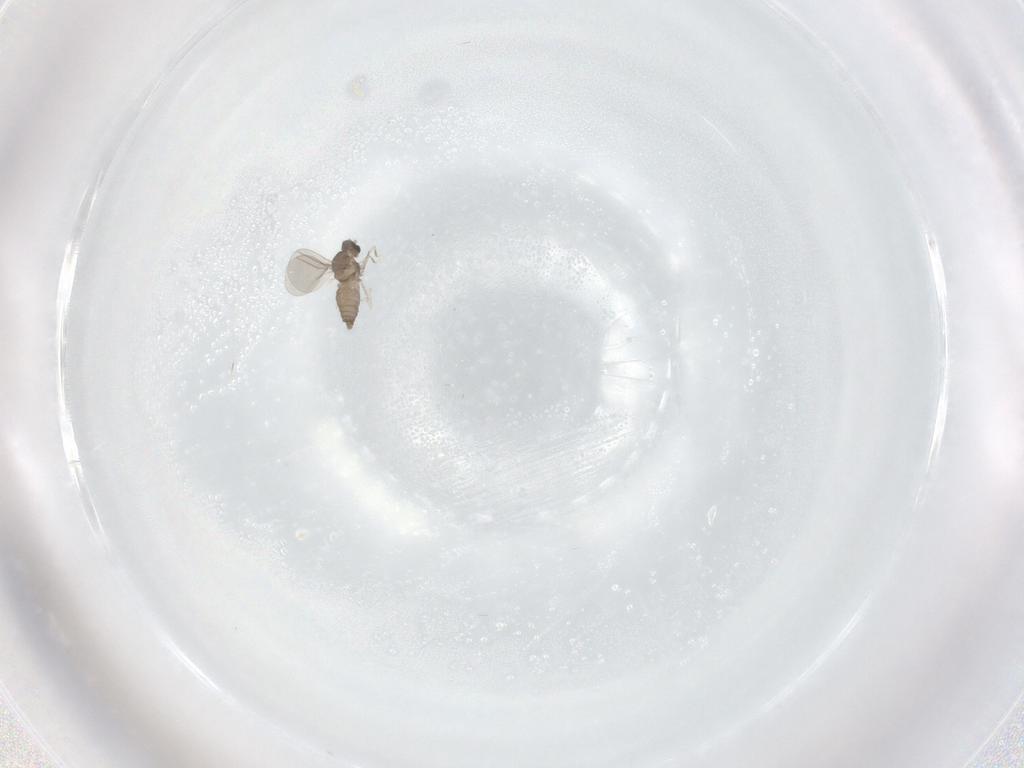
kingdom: Animalia
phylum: Arthropoda
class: Insecta
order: Diptera
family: Cecidomyiidae
